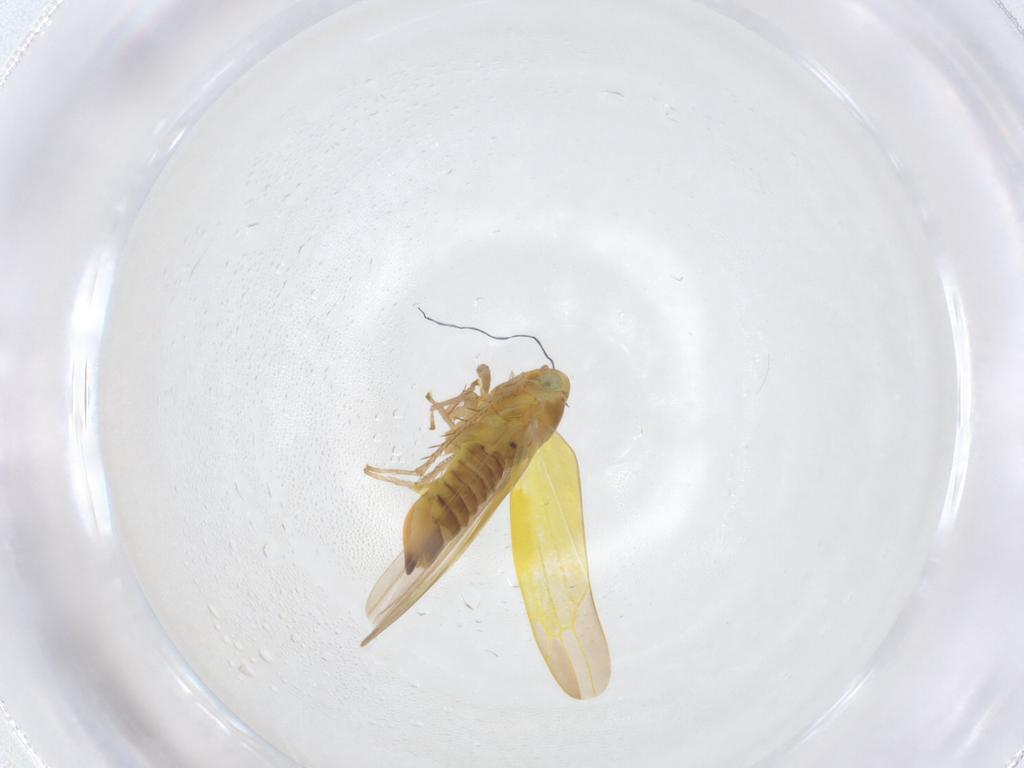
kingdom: Animalia
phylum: Arthropoda
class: Insecta
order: Hemiptera
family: Cicadellidae
